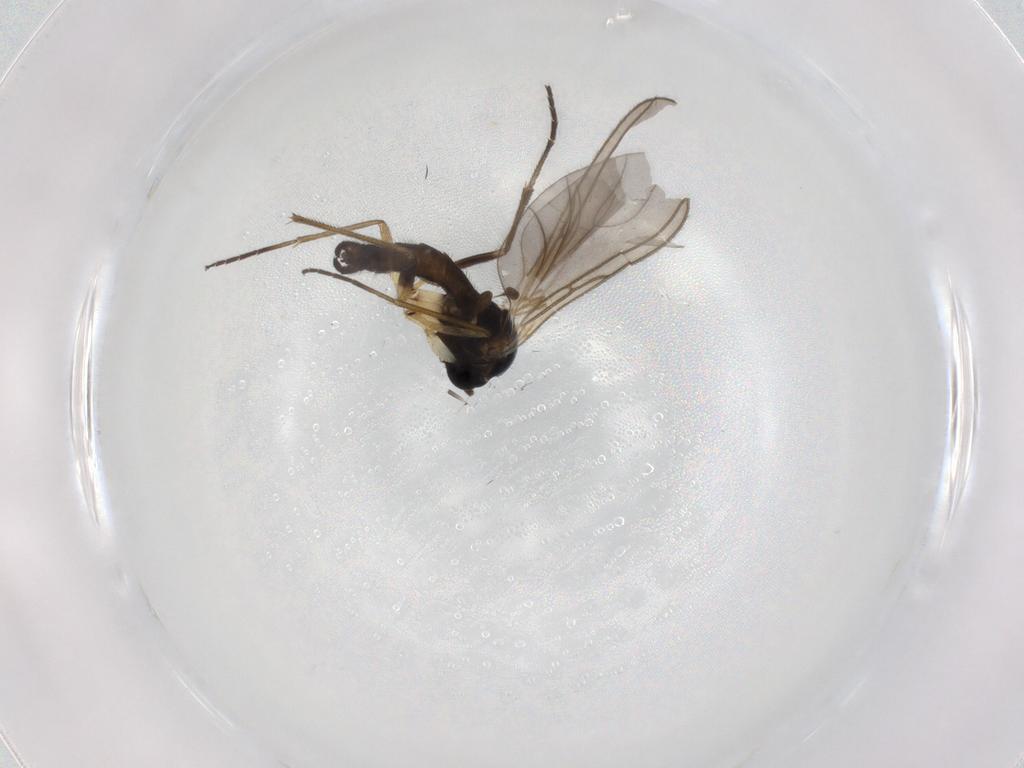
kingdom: Animalia
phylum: Arthropoda
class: Insecta
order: Diptera
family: Sciaridae
